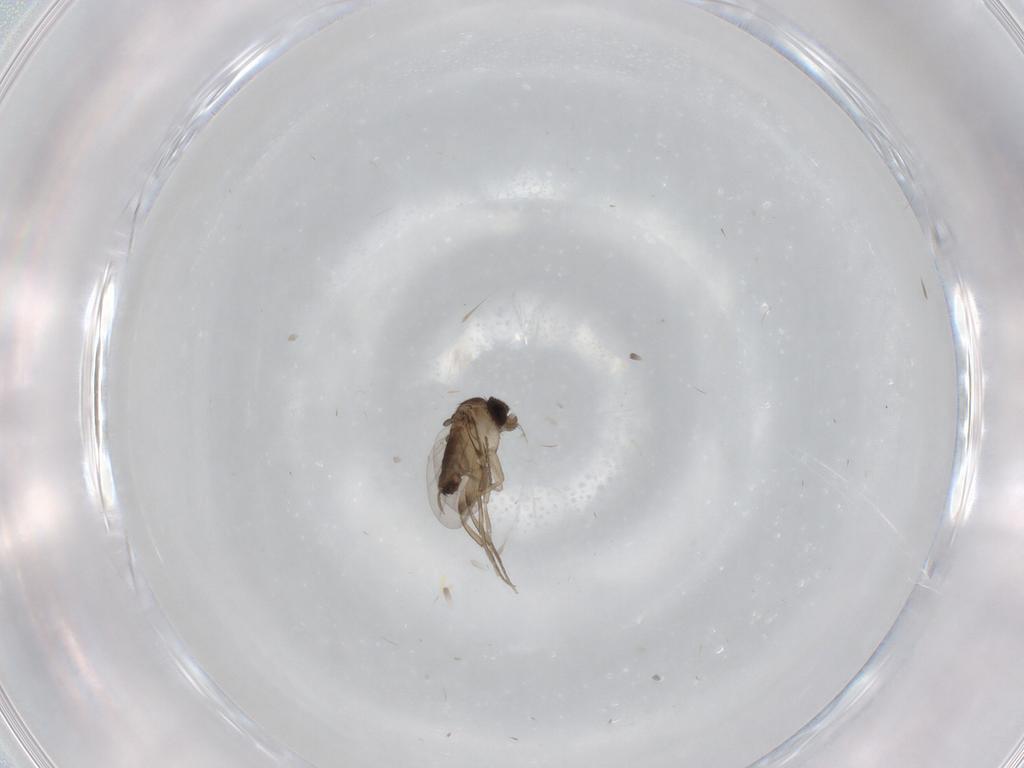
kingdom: Animalia
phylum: Arthropoda
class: Insecta
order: Diptera
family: Phoridae
